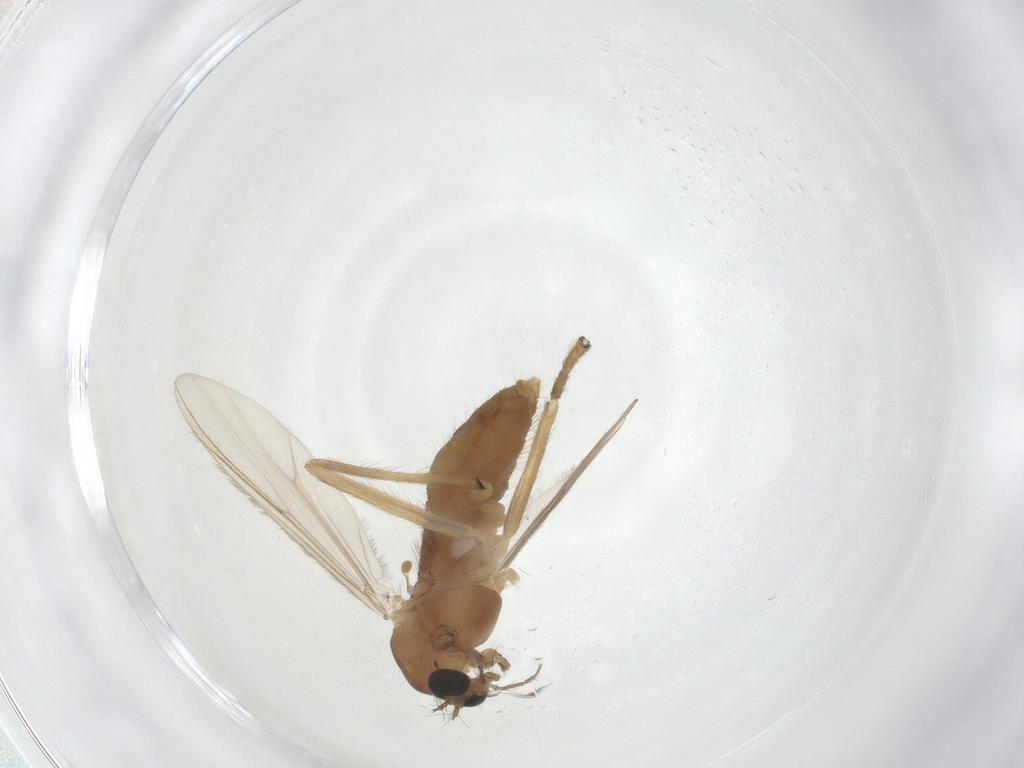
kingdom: Animalia
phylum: Arthropoda
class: Insecta
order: Diptera
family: Chironomidae
